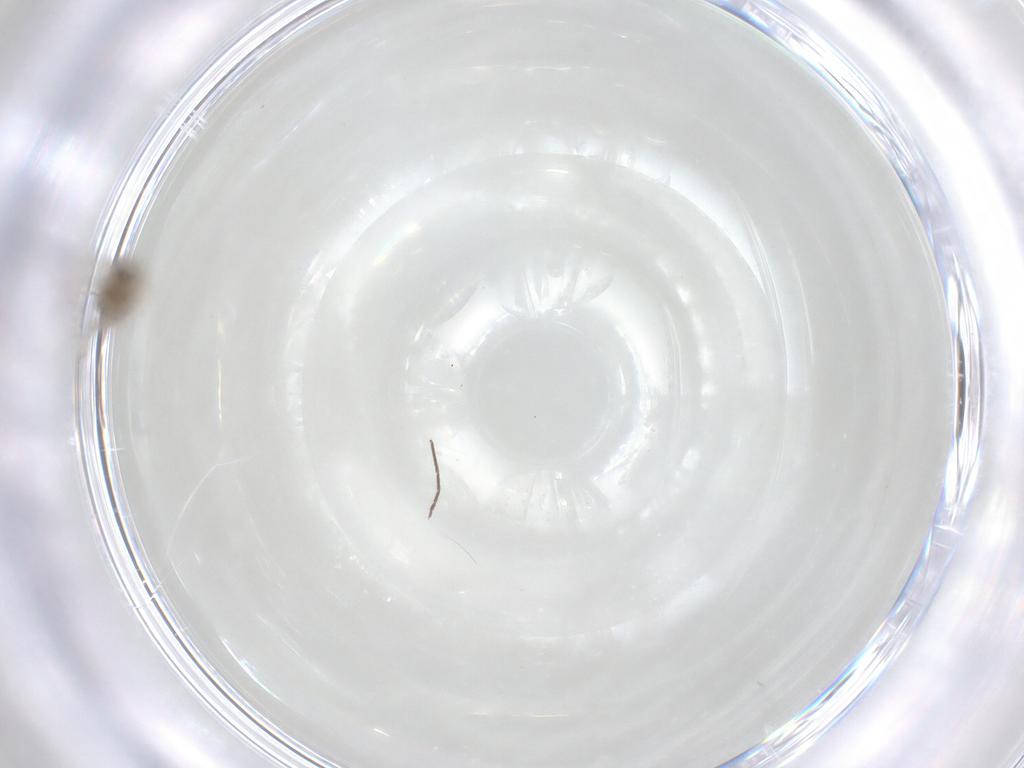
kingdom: Animalia
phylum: Arthropoda
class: Insecta
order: Diptera
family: Cecidomyiidae
